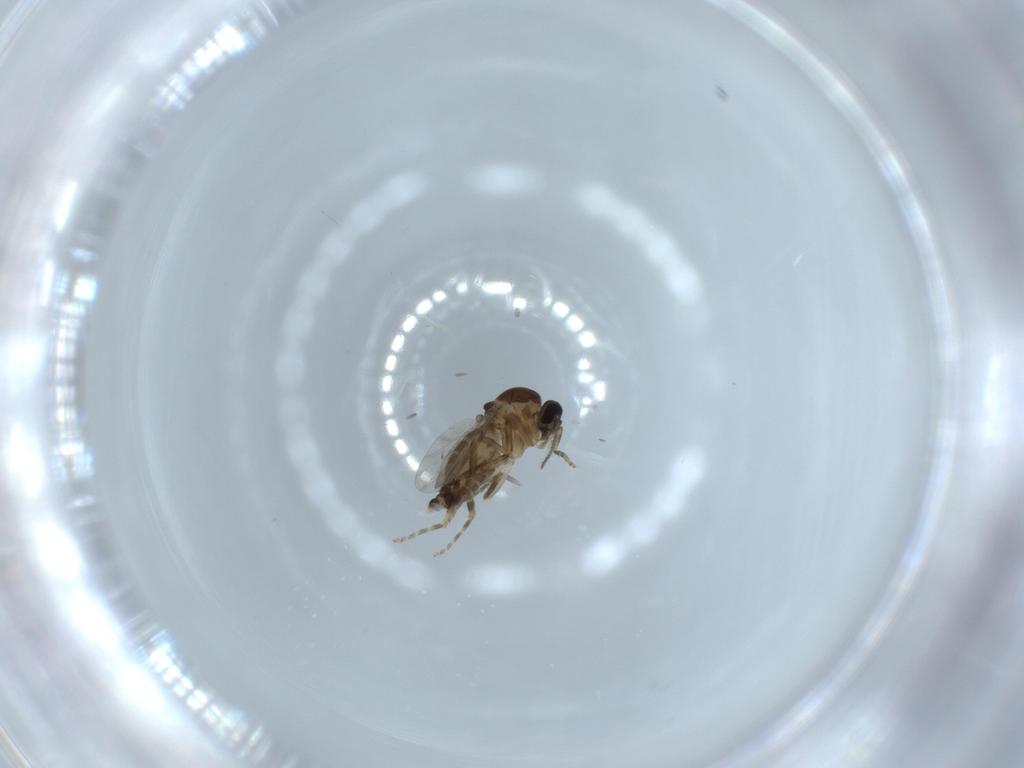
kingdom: Animalia
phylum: Arthropoda
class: Insecta
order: Diptera
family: Ceratopogonidae
